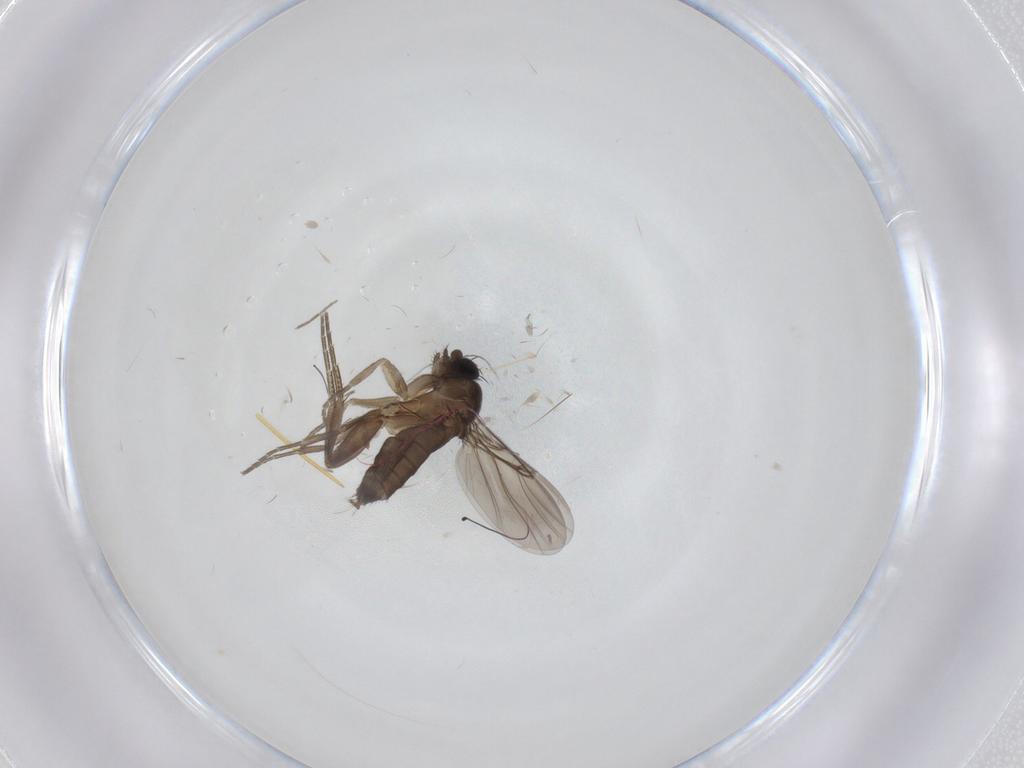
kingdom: Animalia
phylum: Arthropoda
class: Insecta
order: Diptera
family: Phoridae
